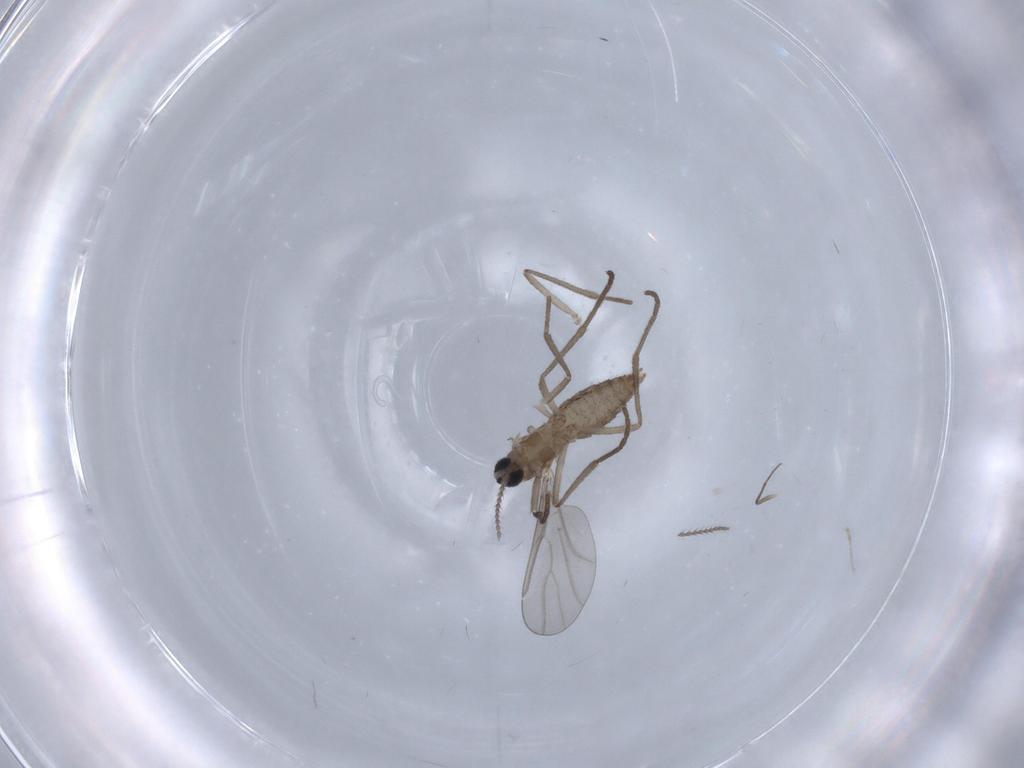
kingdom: Animalia
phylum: Arthropoda
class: Insecta
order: Diptera
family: Cecidomyiidae
